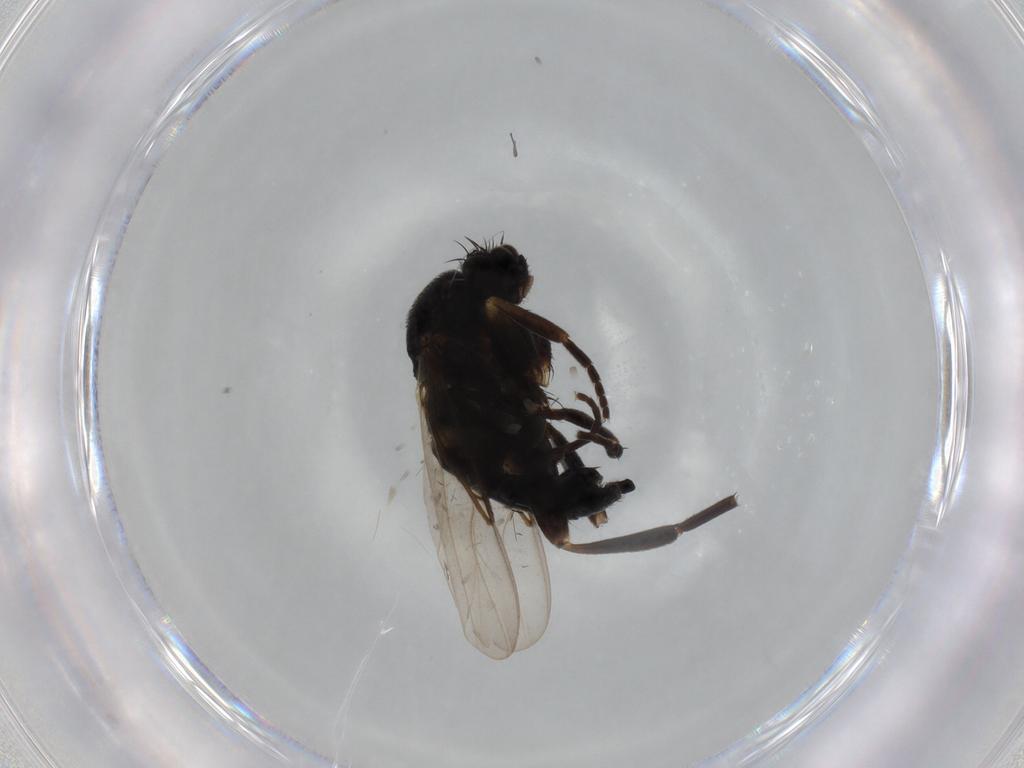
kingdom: Animalia
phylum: Arthropoda
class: Insecta
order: Diptera
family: Phoridae
